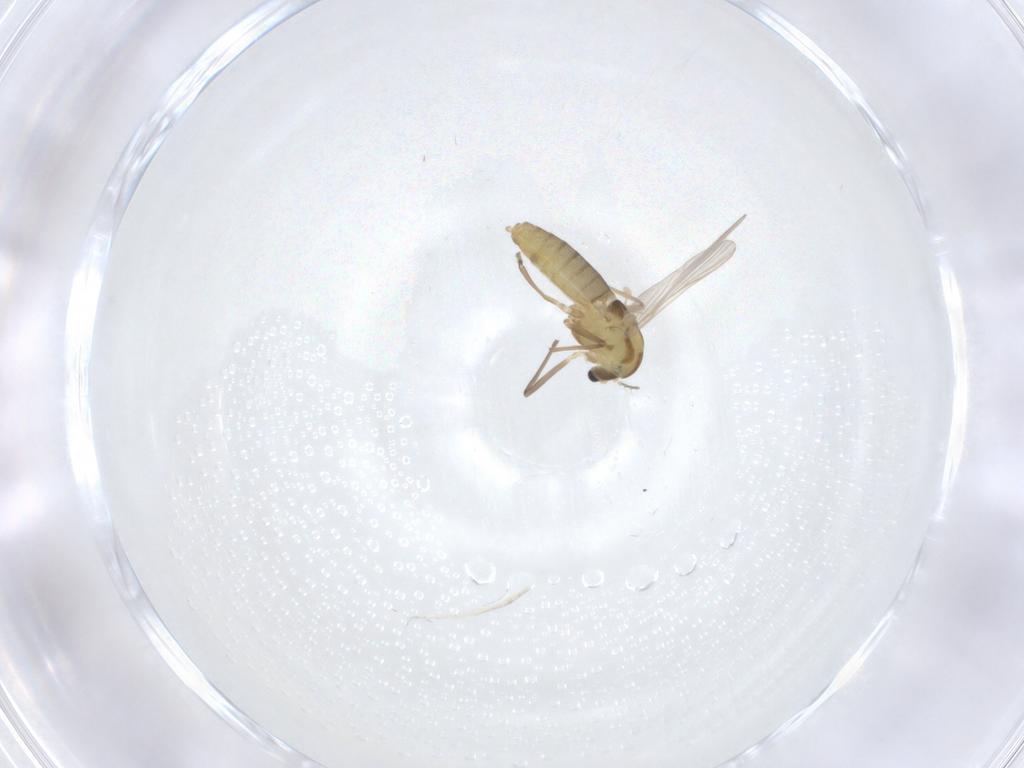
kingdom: Animalia
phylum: Arthropoda
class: Insecta
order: Diptera
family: Chironomidae
